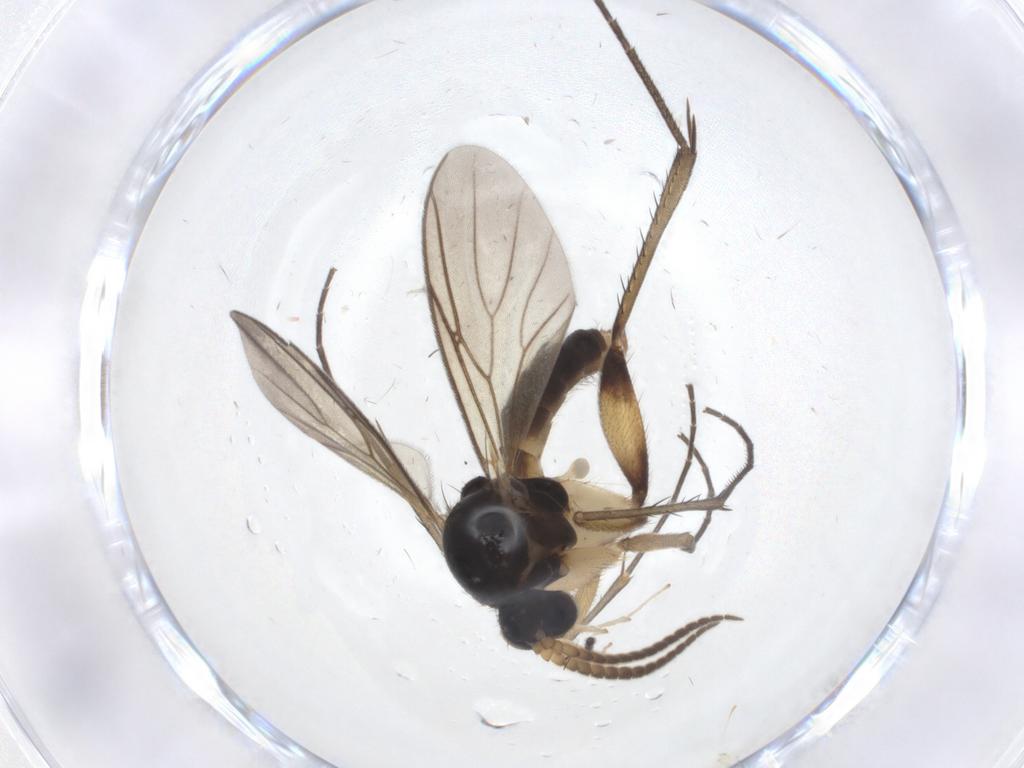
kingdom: Animalia
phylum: Arthropoda
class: Insecta
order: Diptera
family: Sciaridae
